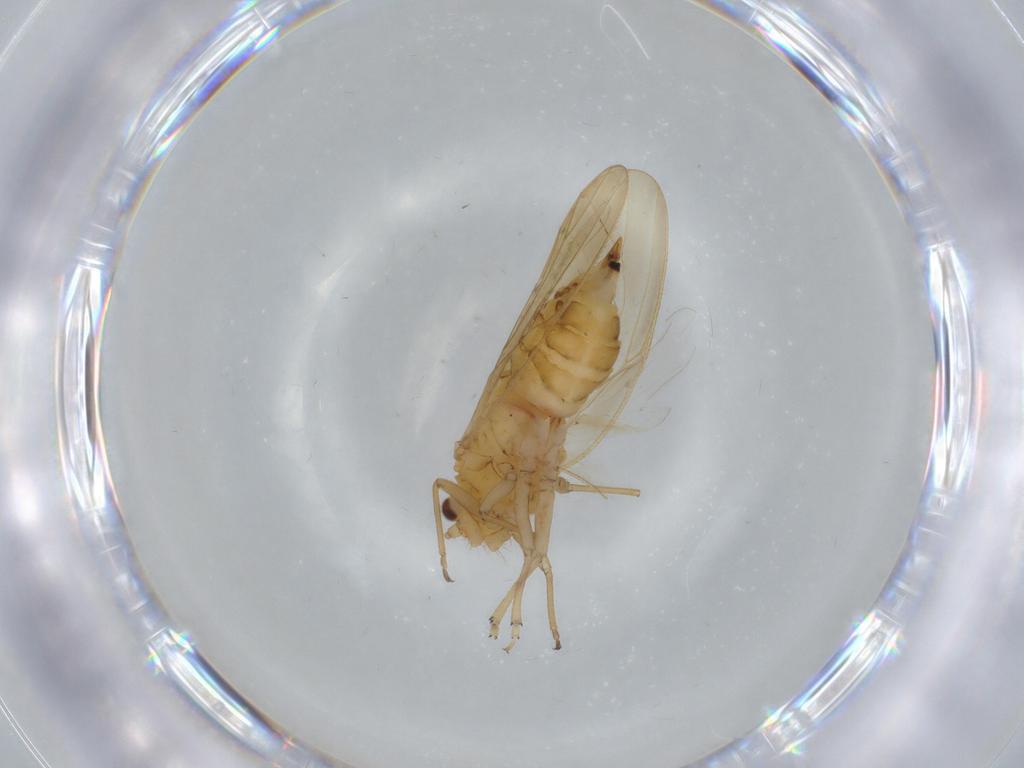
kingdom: Animalia
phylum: Arthropoda
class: Insecta
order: Hemiptera
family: Psyllidae
